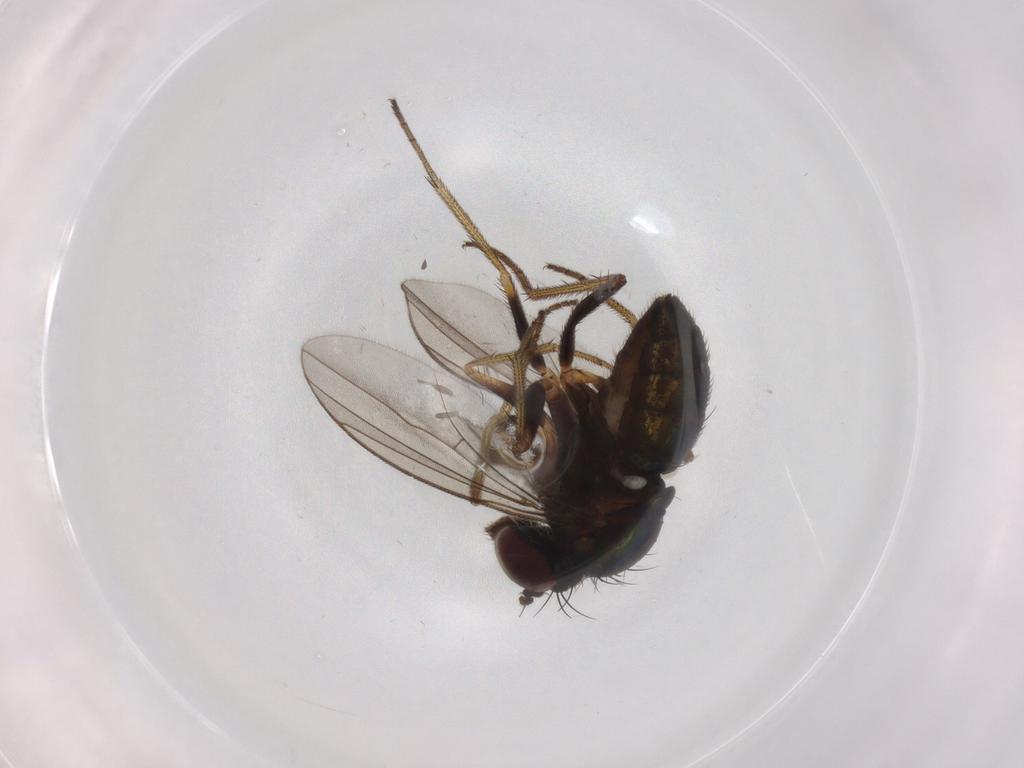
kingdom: Animalia
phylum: Arthropoda
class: Insecta
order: Diptera
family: Dolichopodidae
